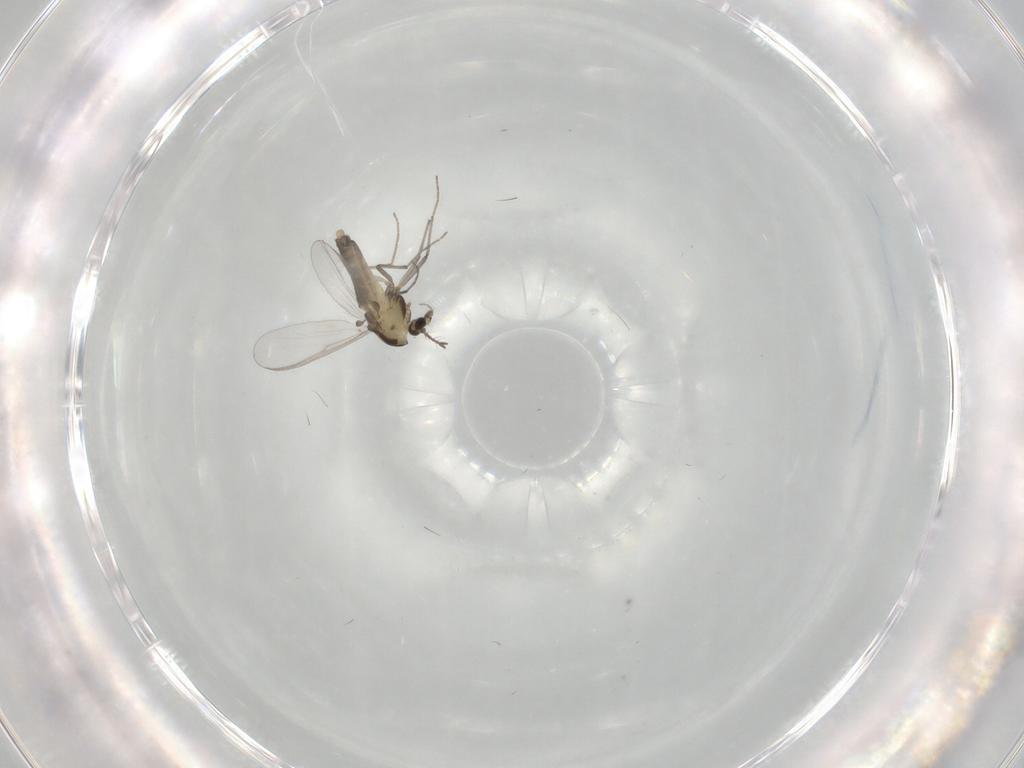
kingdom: Animalia
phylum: Arthropoda
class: Insecta
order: Diptera
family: Chironomidae
